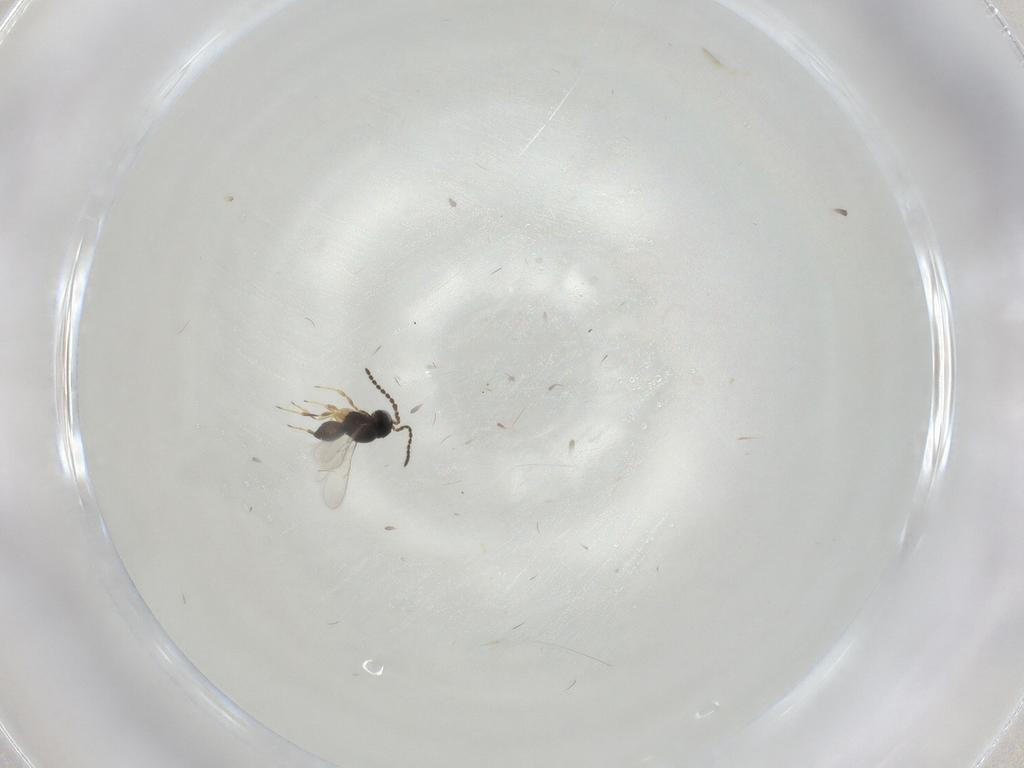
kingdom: Animalia
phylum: Arthropoda
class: Insecta
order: Hymenoptera
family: Scelionidae
